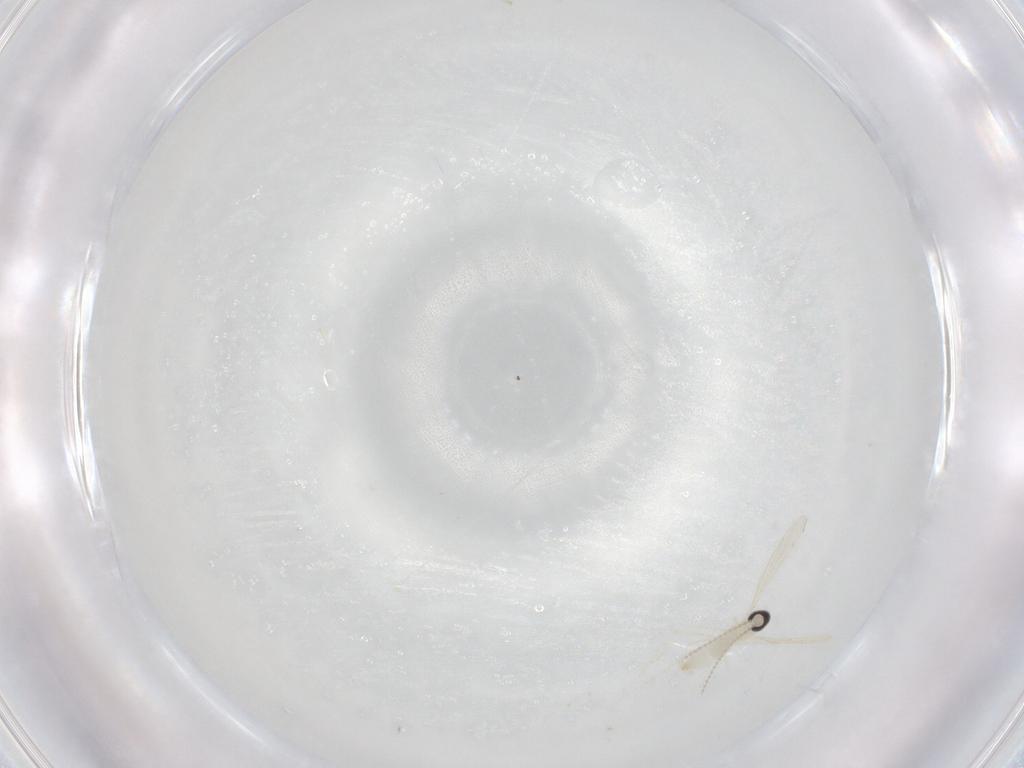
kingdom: Animalia
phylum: Arthropoda
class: Insecta
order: Diptera
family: Cecidomyiidae
